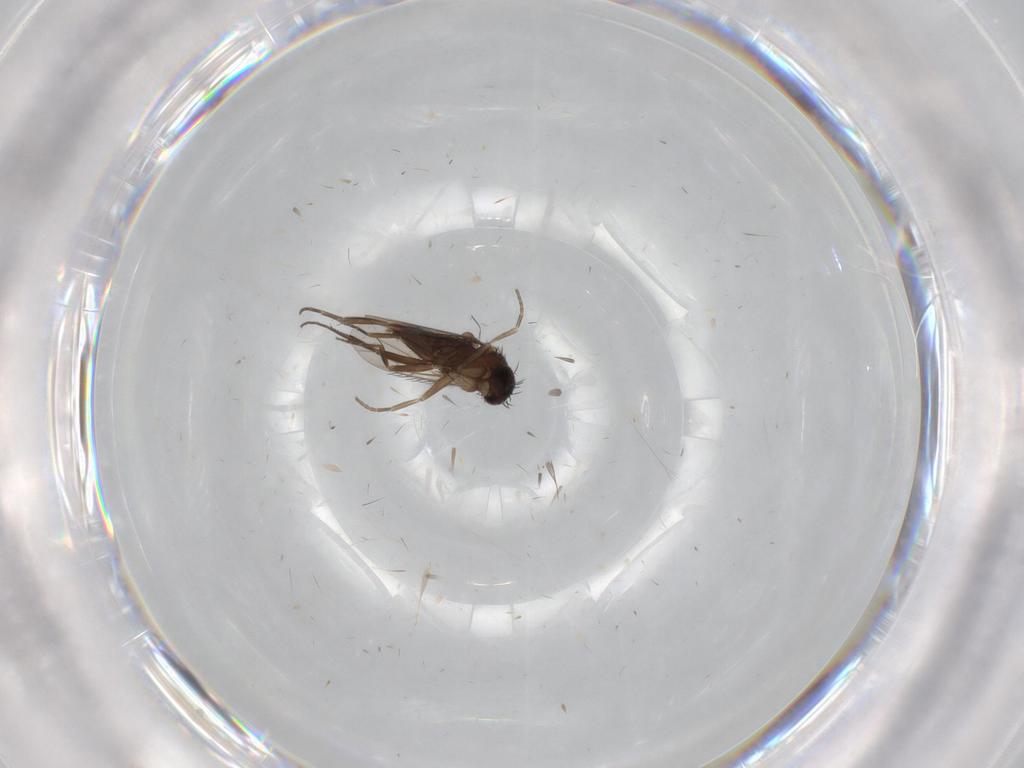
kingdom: Animalia
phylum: Arthropoda
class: Insecta
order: Diptera
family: Phoridae
